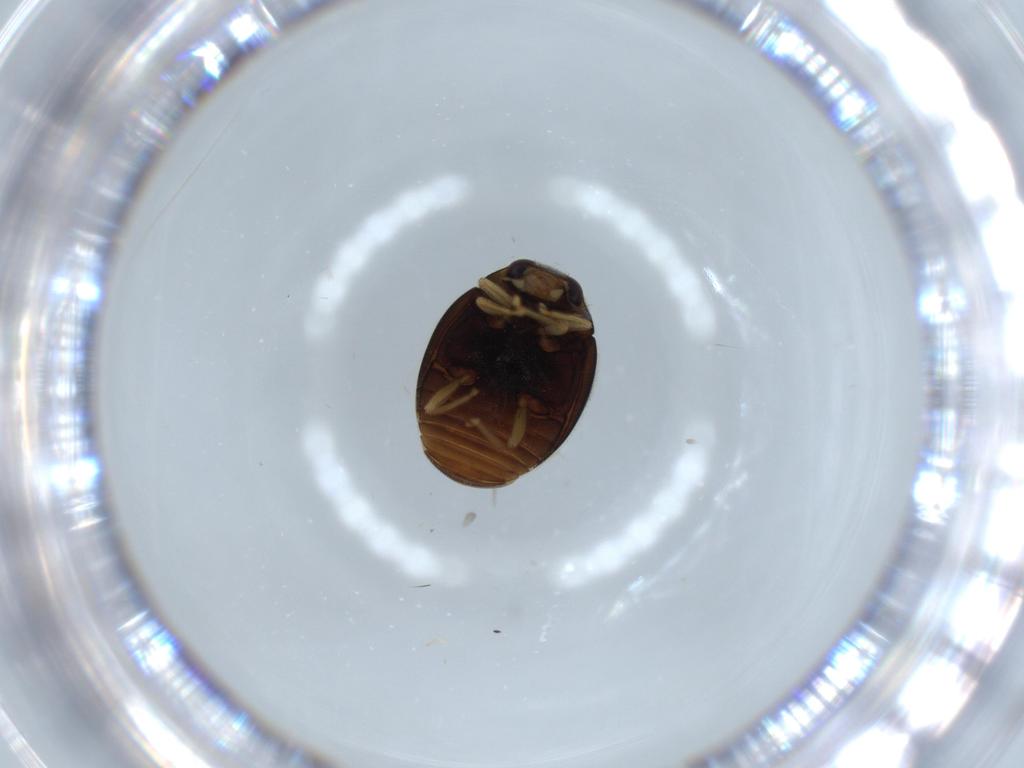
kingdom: Animalia
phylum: Arthropoda
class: Insecta
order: Coleoptera
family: Coccinellidae
